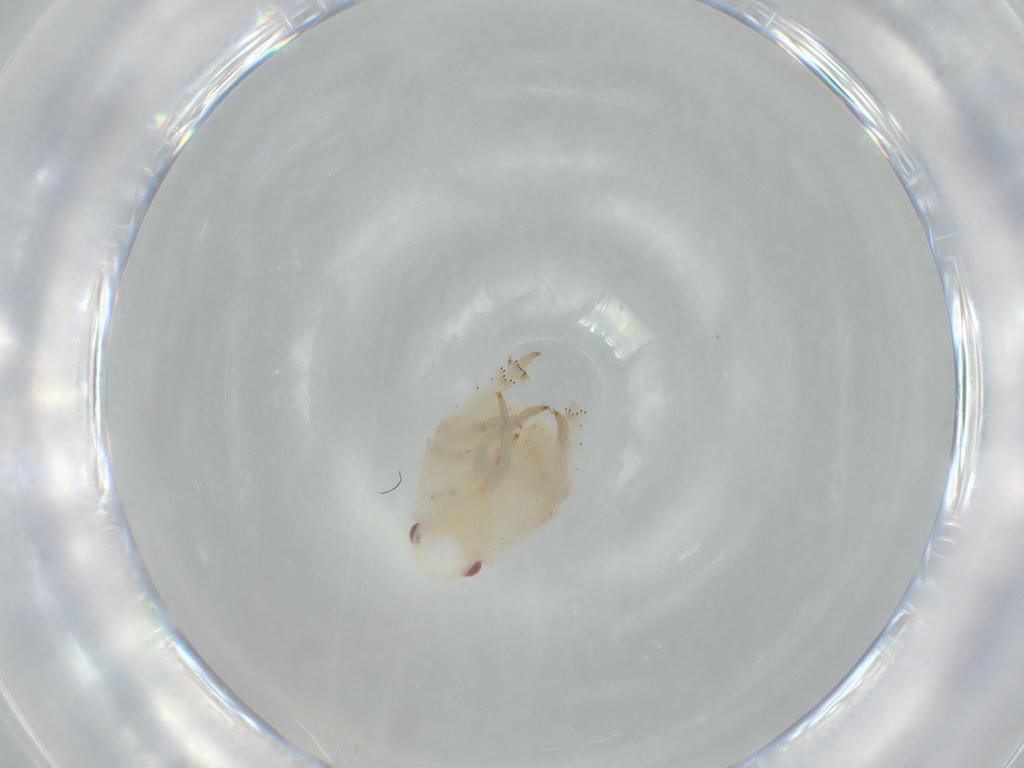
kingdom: Animalia
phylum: Arthropoda
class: Insecta
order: Hemiptera
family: Flatidae
